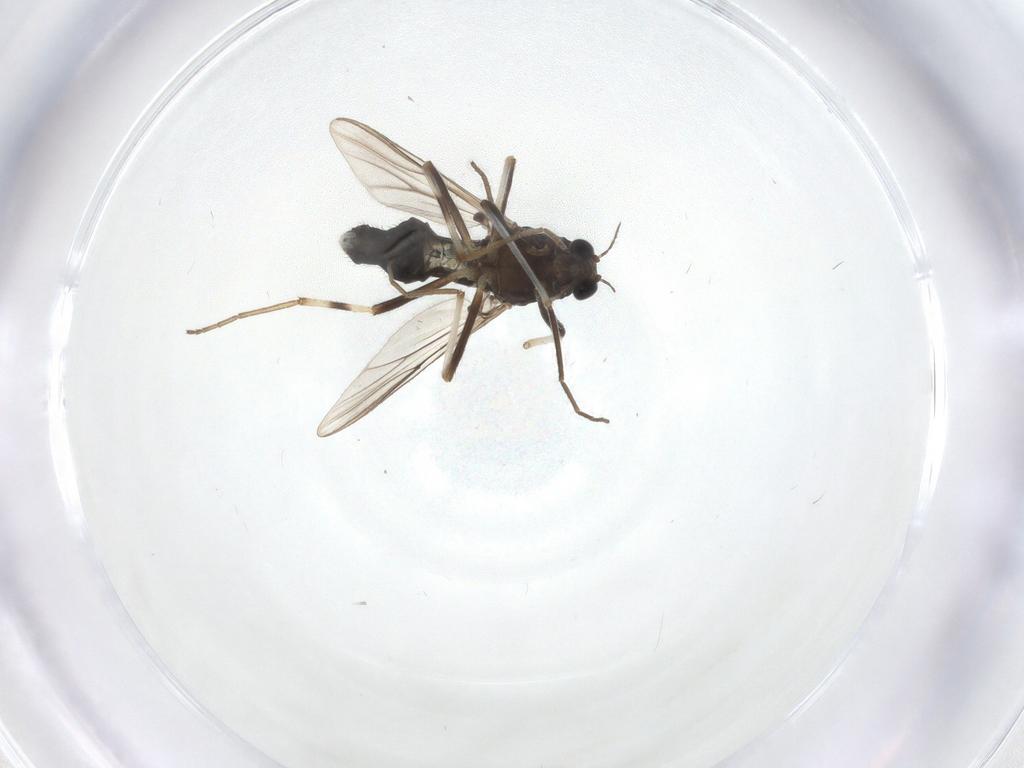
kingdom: Animalia
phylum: Arthropoda
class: Insecta
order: Diptera
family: Chironomidae
